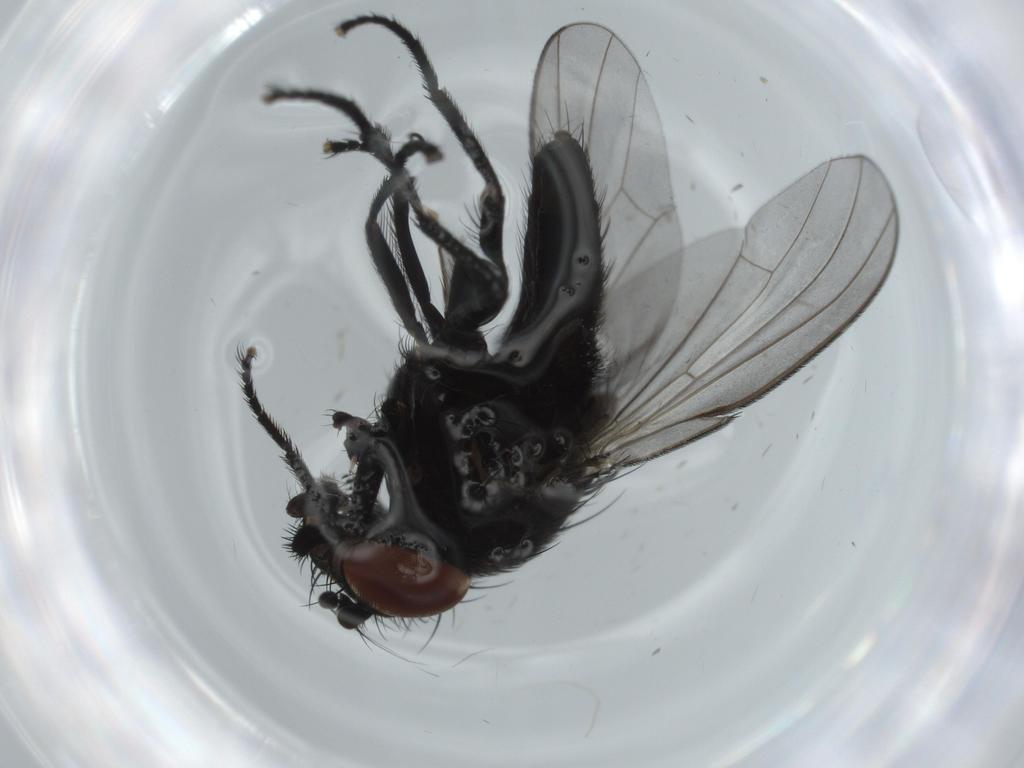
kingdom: Animalia
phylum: Arthropoda
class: Insecta
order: Diptera
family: Milichiidae
